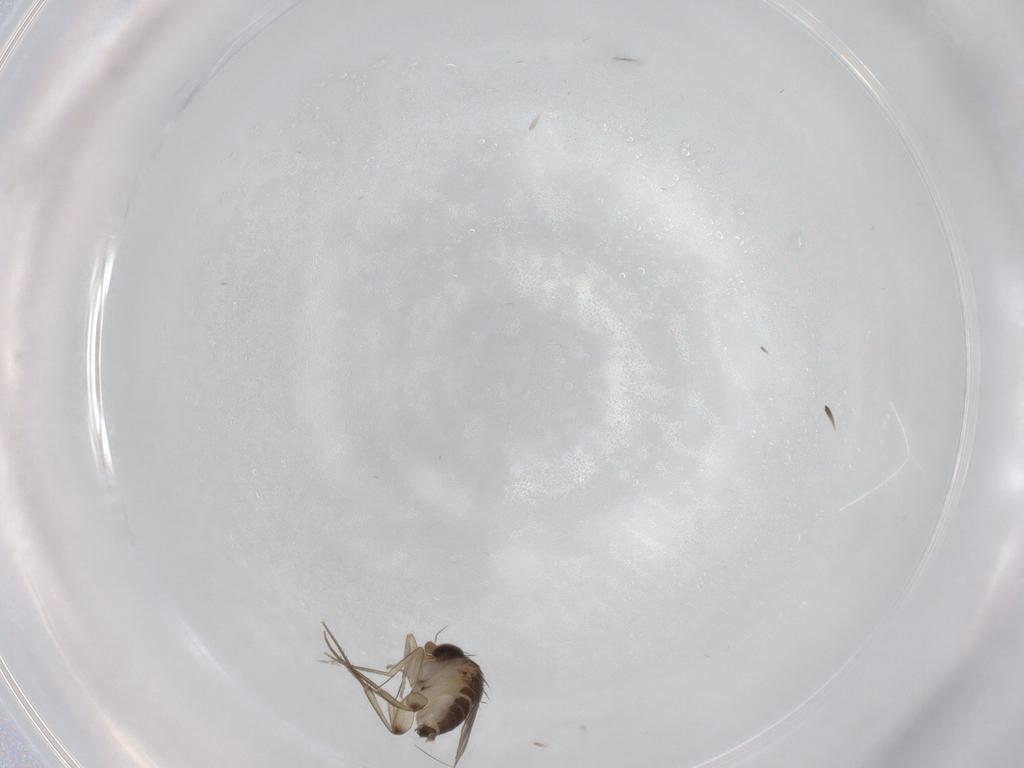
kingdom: Animalia
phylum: Arthropoda
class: Insecta
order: Diptera
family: Phoridae
